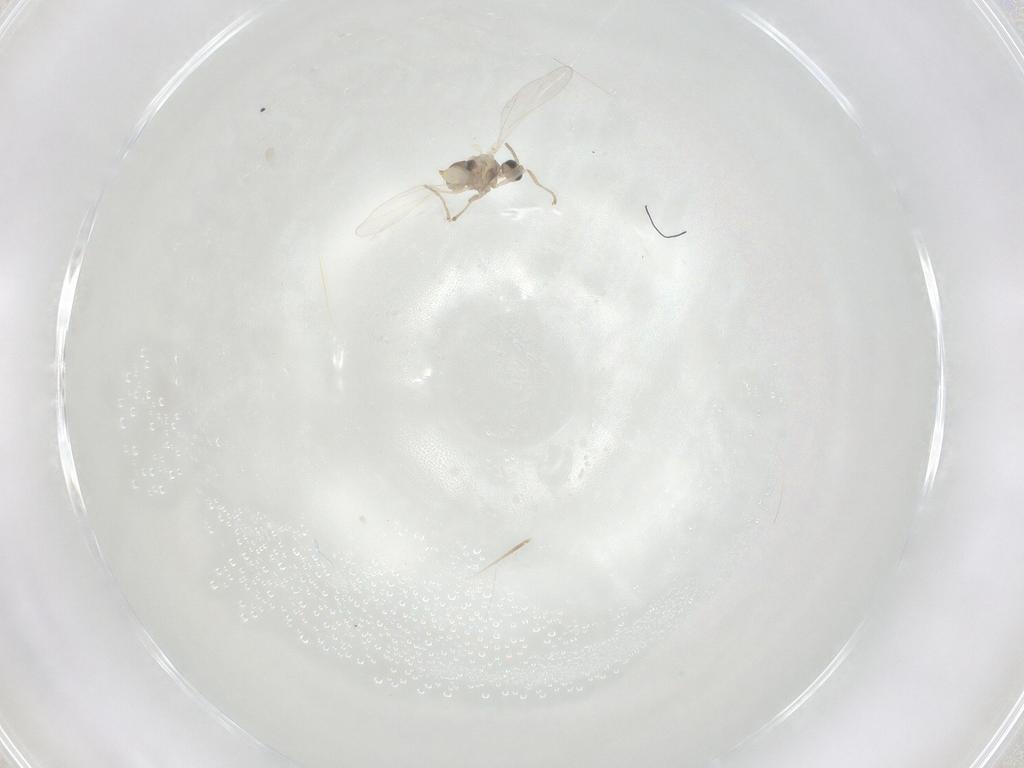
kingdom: Animalia
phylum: Arthropoda
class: Insecta
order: Diptera
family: Cecidomyiidae
